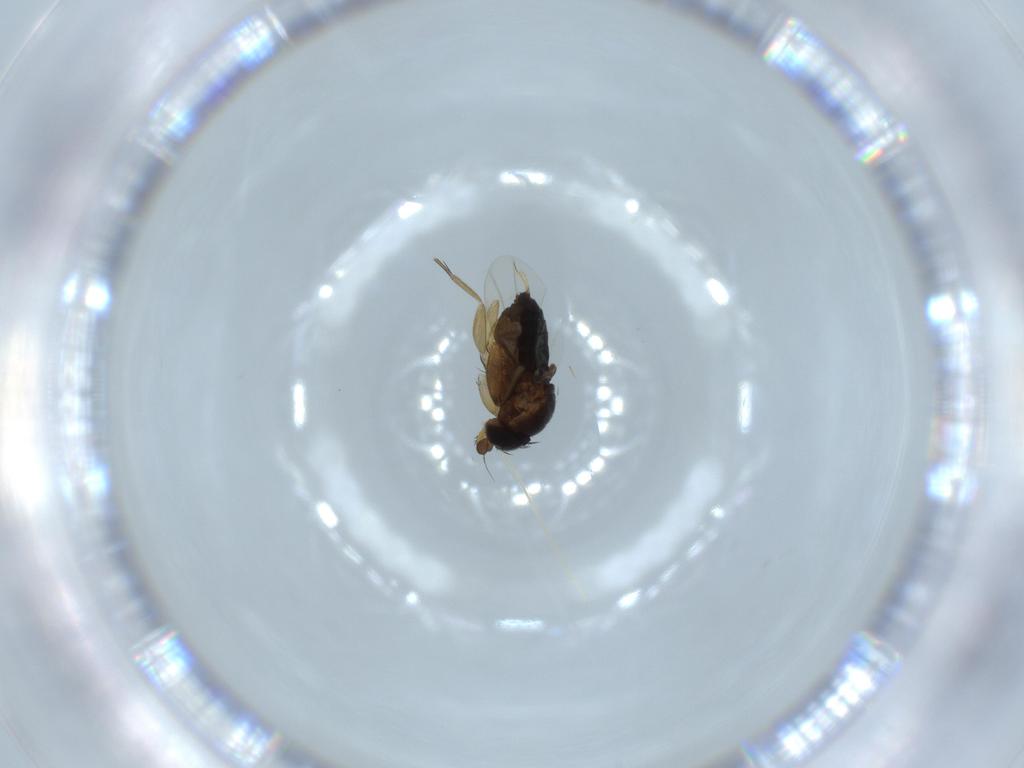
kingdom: Animalia
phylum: Arthropoda
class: Insecta
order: Diptera
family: Phoridae
